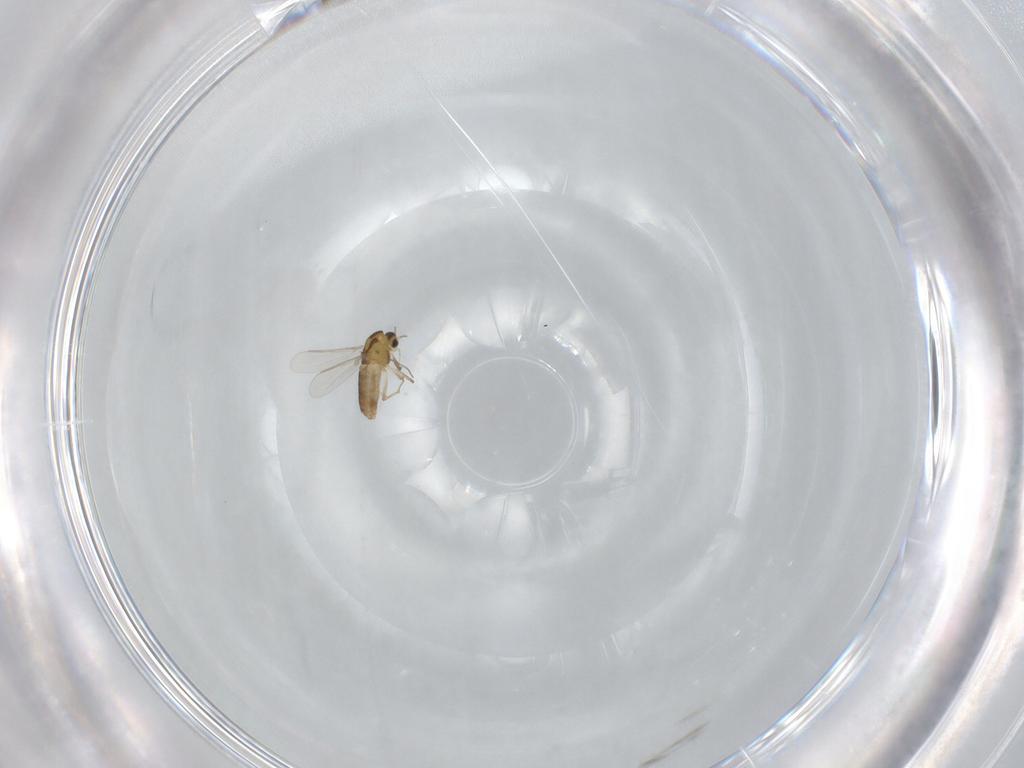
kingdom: Animalia
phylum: Arthropoda
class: Insecta
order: Diptera
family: Chironomidae
